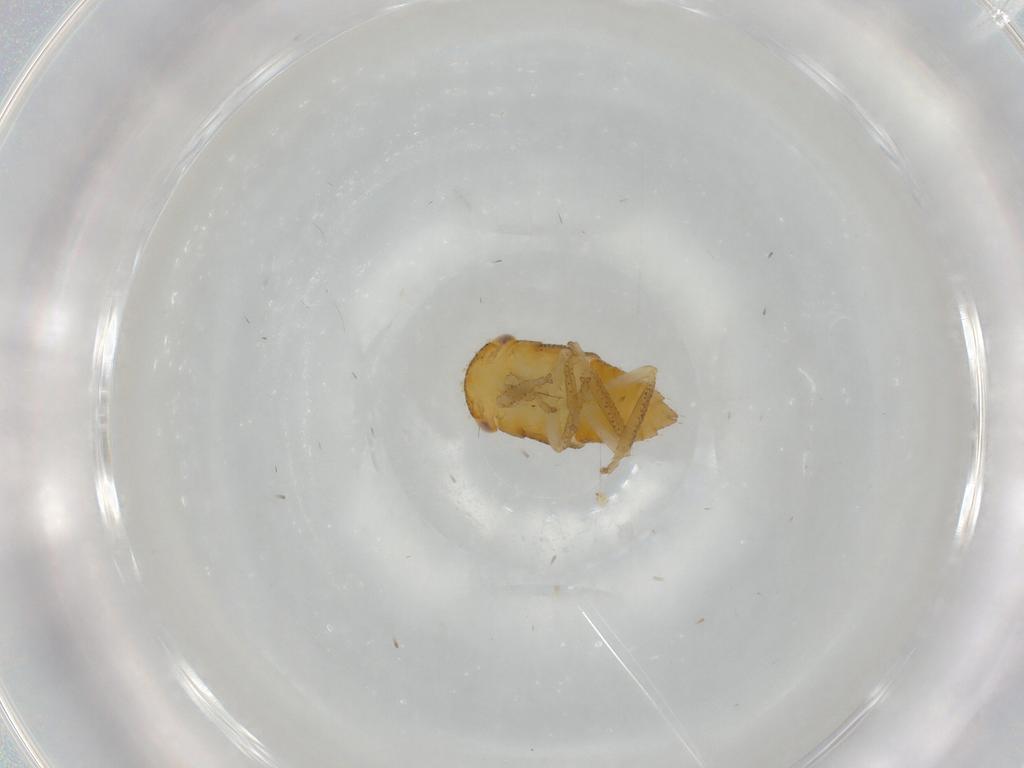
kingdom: Animalia
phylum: Arthropoda
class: Insecta
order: Hemiptera
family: Cicadellidae
